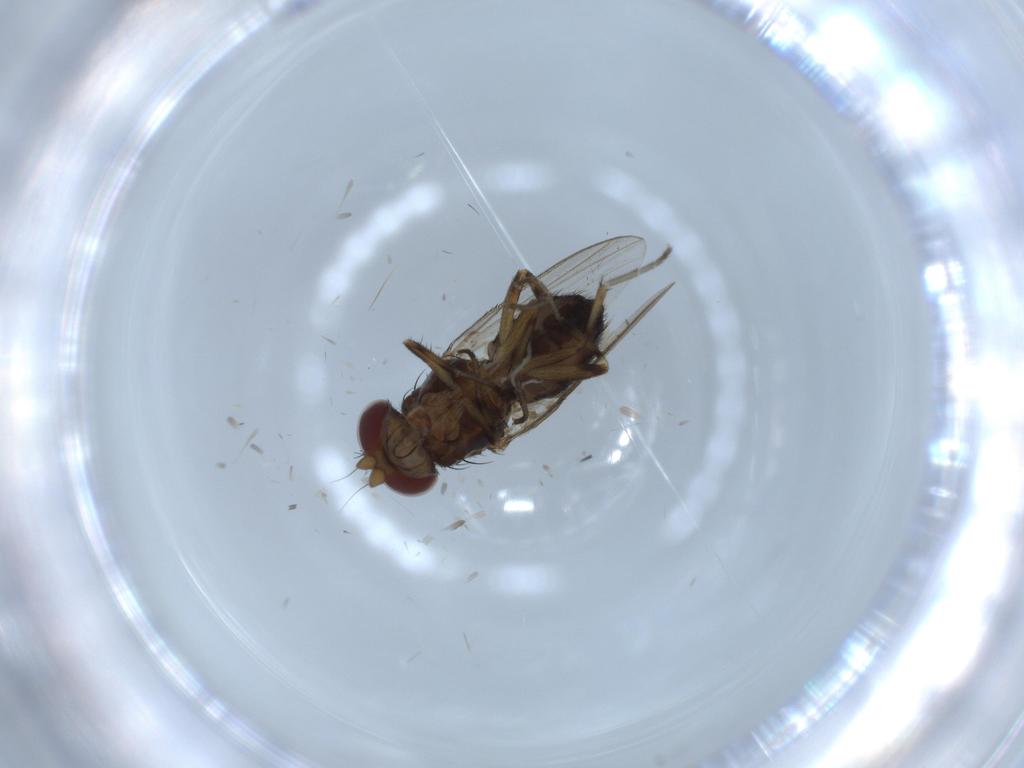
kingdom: Animalia
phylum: Arthropoda
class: Insecta
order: Diptera
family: Heleomyzidae
